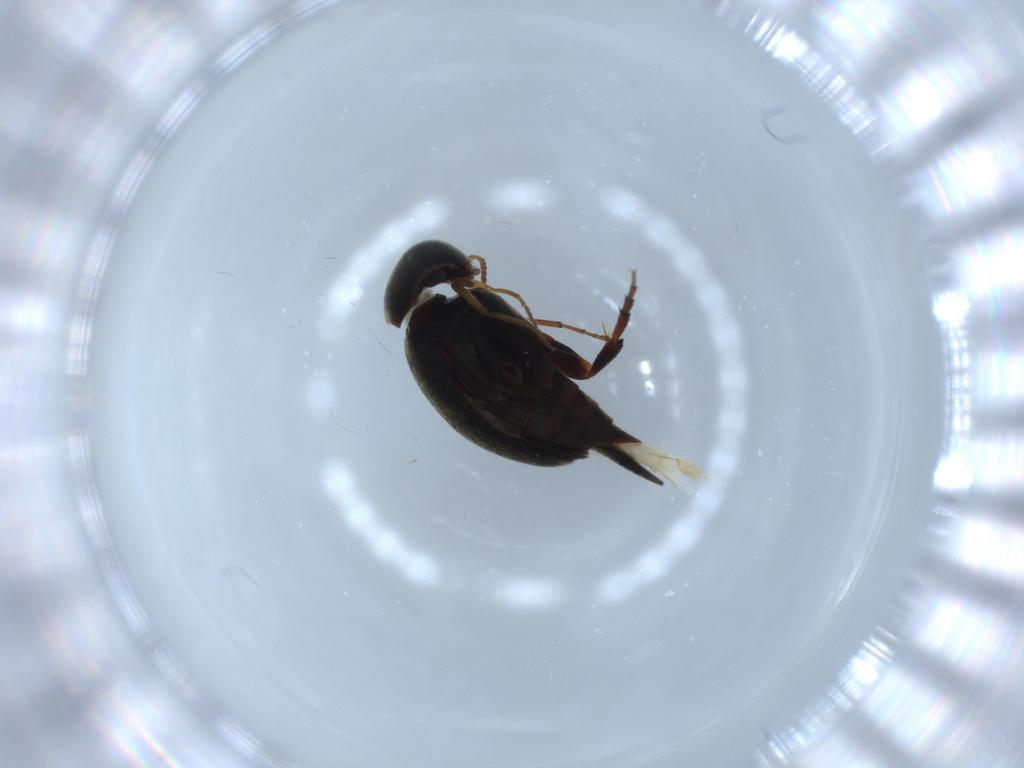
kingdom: Animalia
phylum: Arthropoda
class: Insecta
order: Coleoptera
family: Mordellidae
